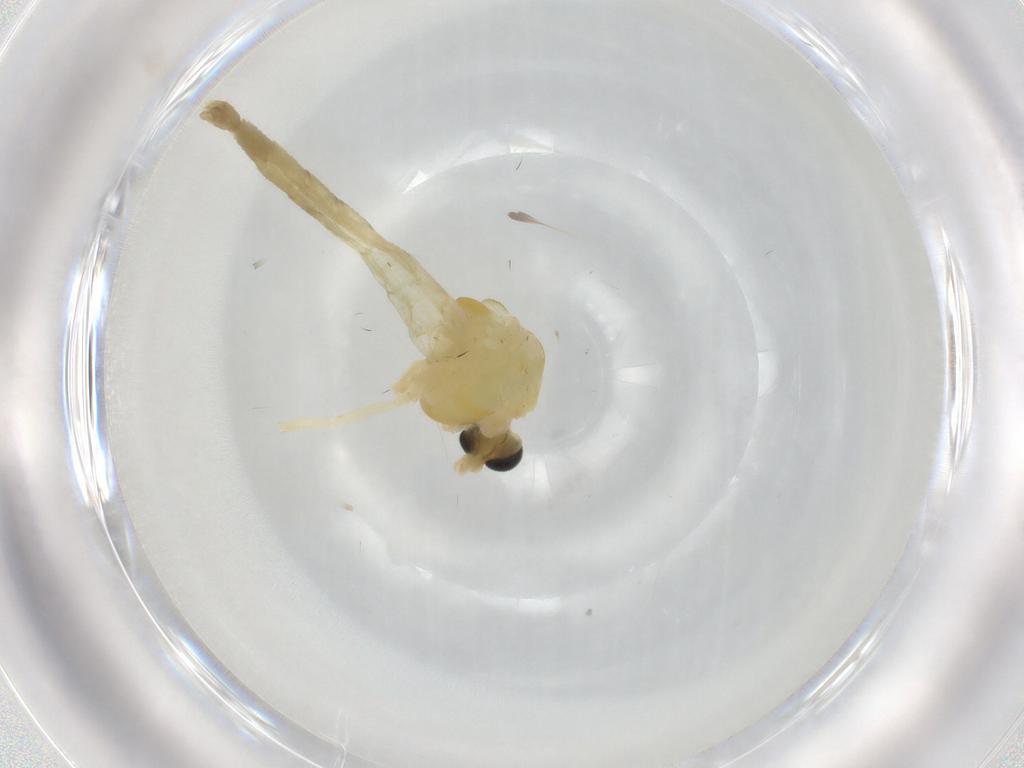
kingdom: Animalia
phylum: Arthropoda
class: Insecta
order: Diptera
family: Chironomidae
